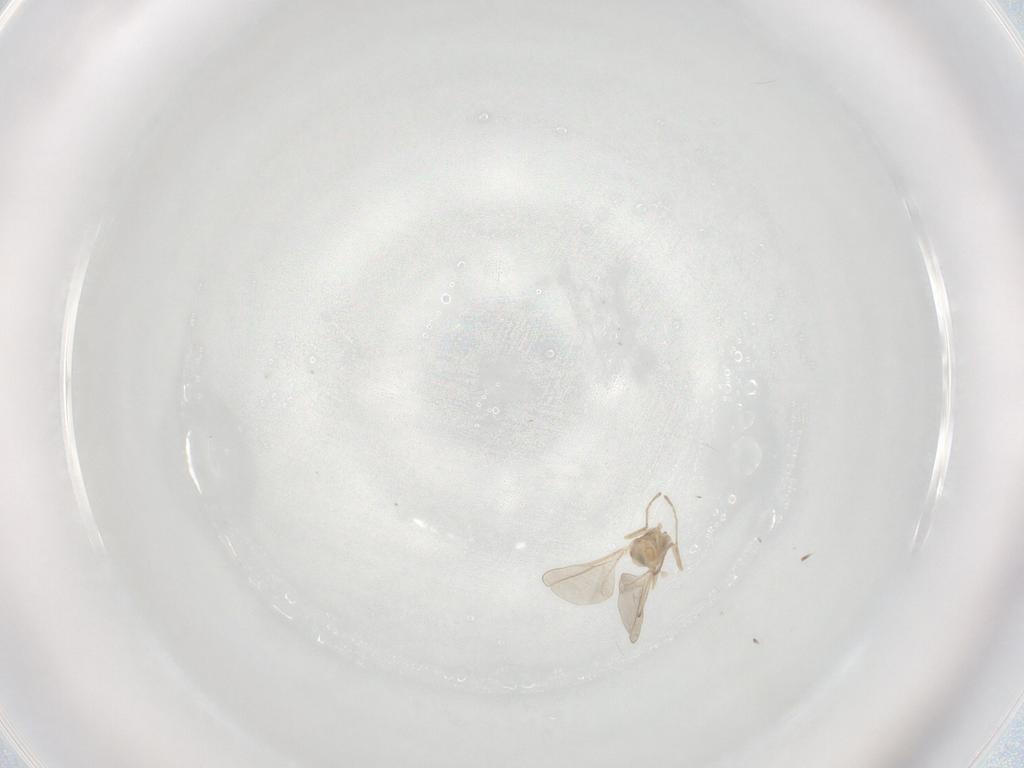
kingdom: Animalia
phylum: Arthropoda
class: Insecta
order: Diptera
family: Cecidomyiidae
